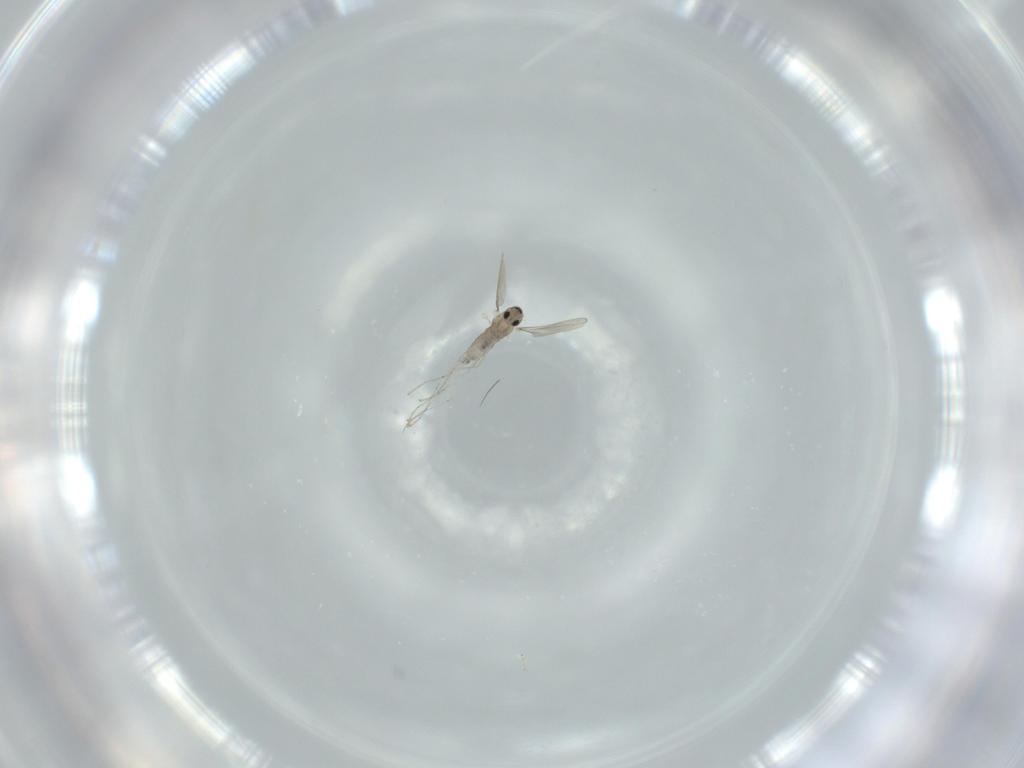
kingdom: Animalia
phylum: Arthropoda
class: Insecta
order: Diptera
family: Cecidomyiidae
